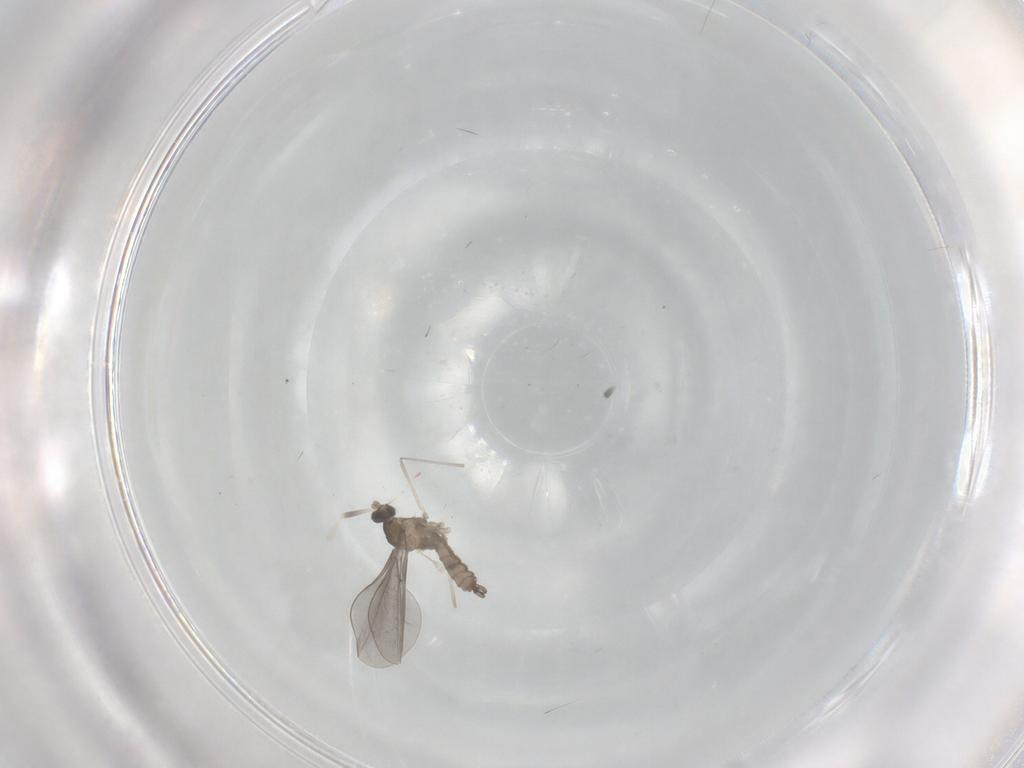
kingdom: Animalia
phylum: Arthropoda
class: Insecta
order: Diptera
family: Cecidomyiidae
